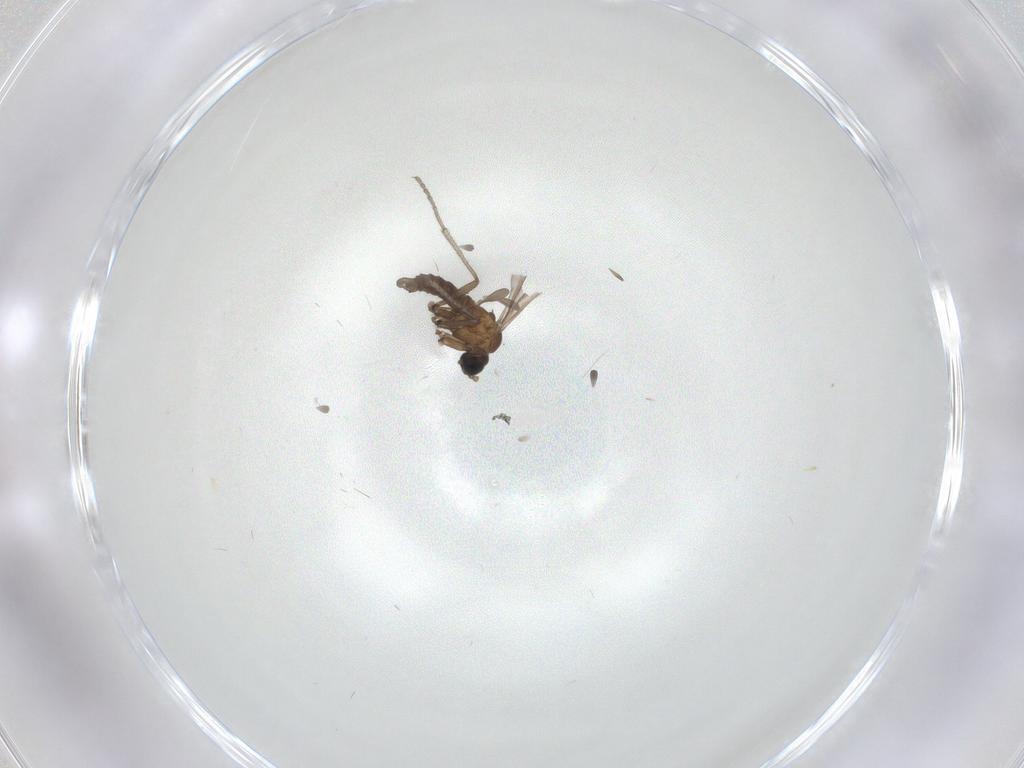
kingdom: Animalia
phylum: Arthropoda
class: Insecta
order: Diptera
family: Sciaridae
